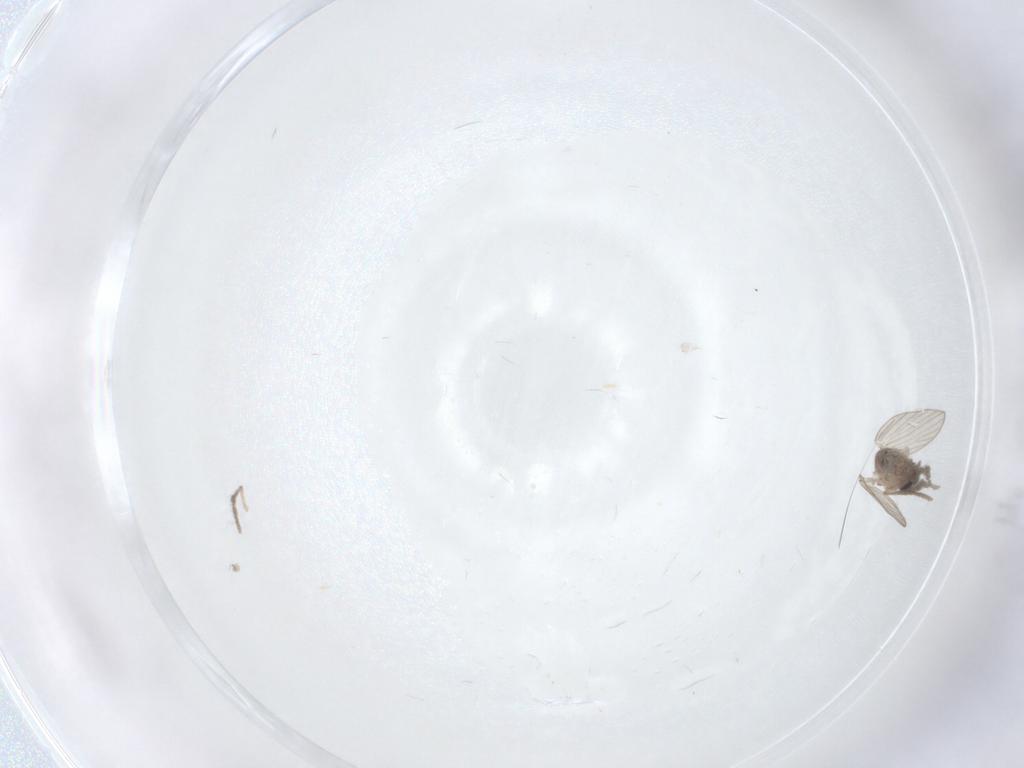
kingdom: Animalia
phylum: Arthropoda
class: Insecta
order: Diptera
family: Psychodidae
